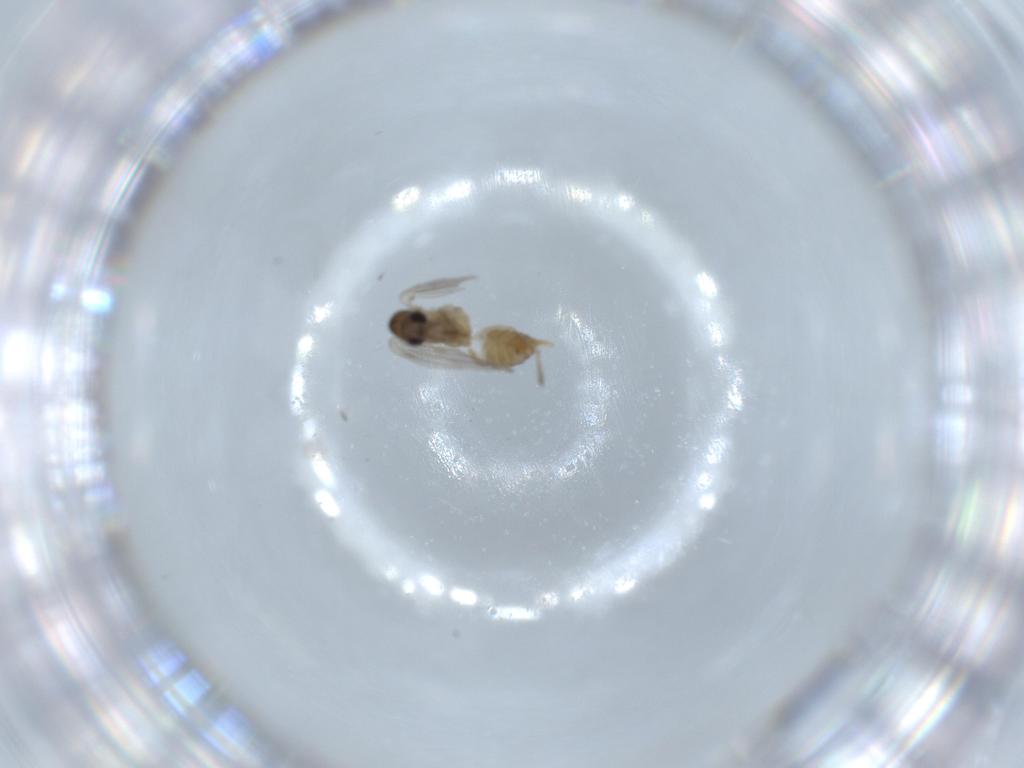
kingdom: Animalia
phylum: Arthropoda
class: Insecta
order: Diptera
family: Psychodidae
